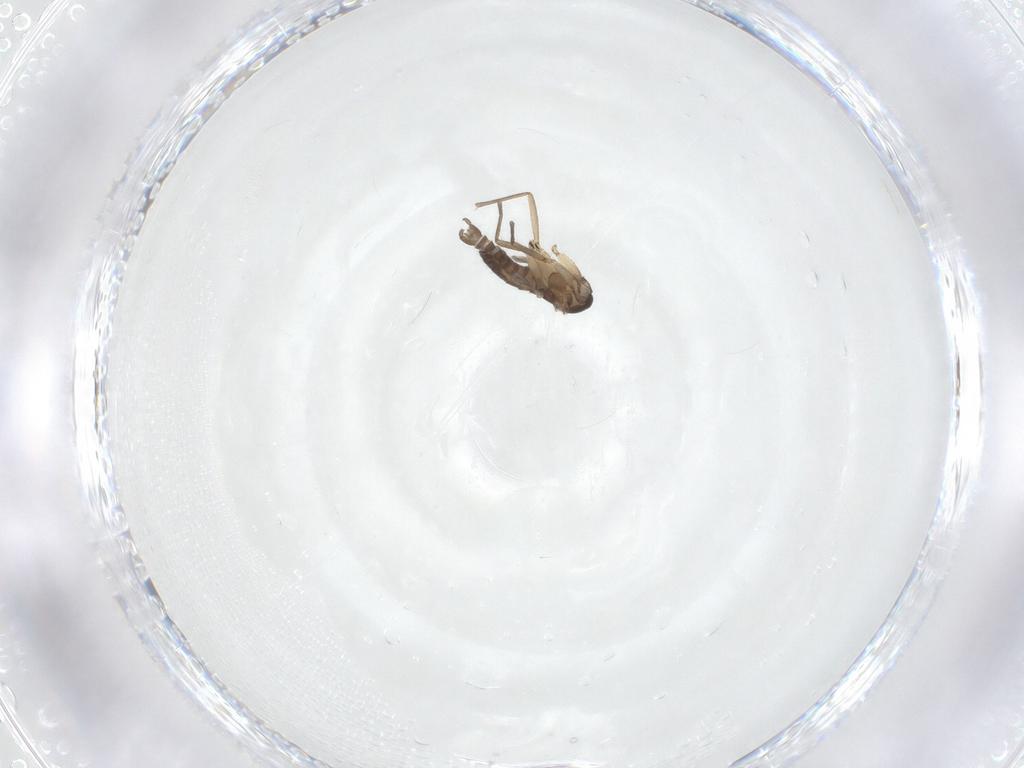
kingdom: Animalia
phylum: Arthropoda
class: Insecta
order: Diptera
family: Sciaridae
